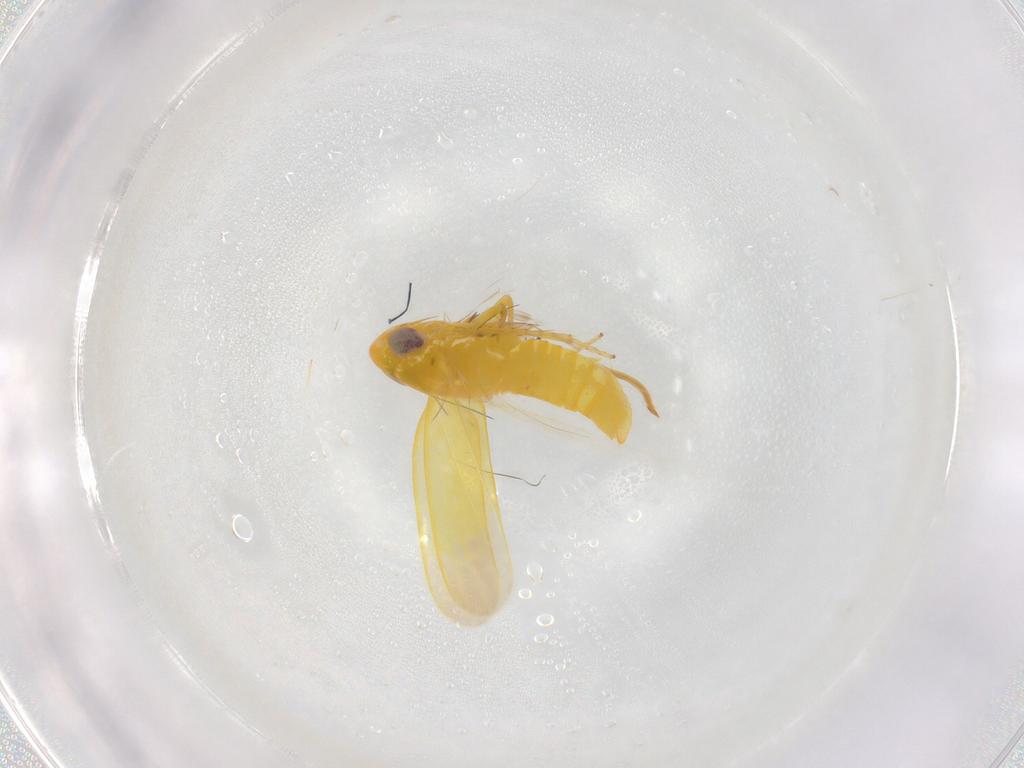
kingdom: Animalia
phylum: Arthropoda
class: Insecta
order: Hemiptera
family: Cicadellidae
